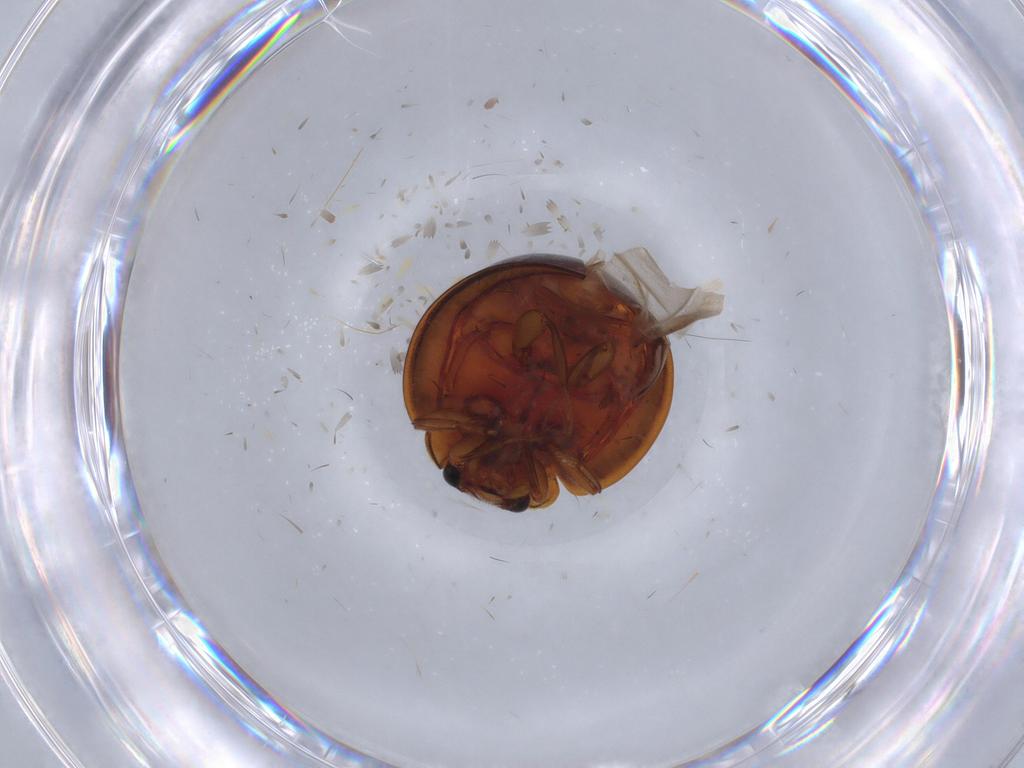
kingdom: Animalia
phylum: Arthropoda
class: Insecta
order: Coleoptera
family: Coccinellidae
